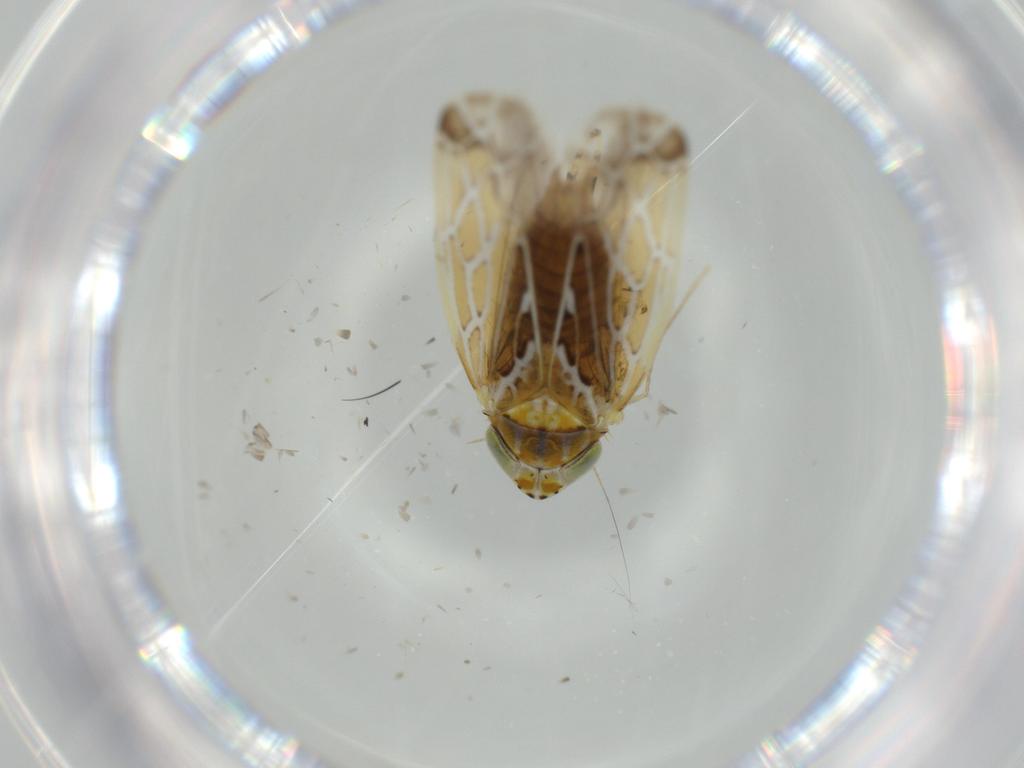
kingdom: Animalia
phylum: Arthropoda
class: Insecta
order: Hemiptera
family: Cicadellidae
